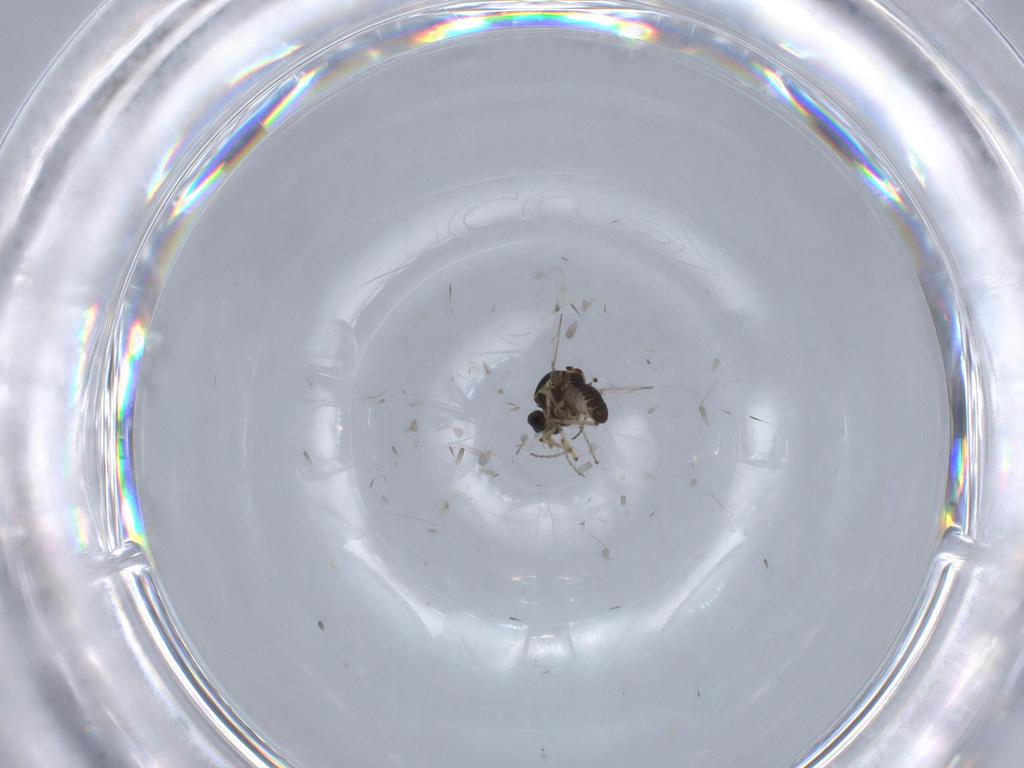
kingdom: Animalia
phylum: Arthropoda
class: Insecta
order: Diptera
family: Ceratopogonidae
